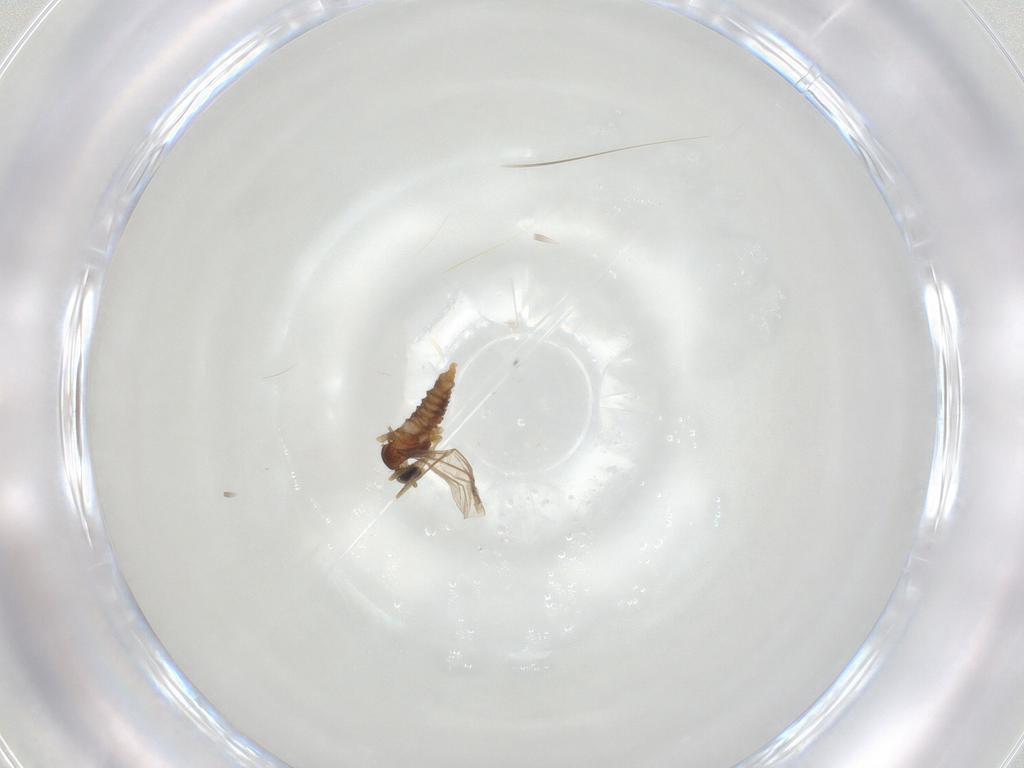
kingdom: Animalia
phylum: Arthropoda
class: Insecta
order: Diptera
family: Cecidomyiidae
